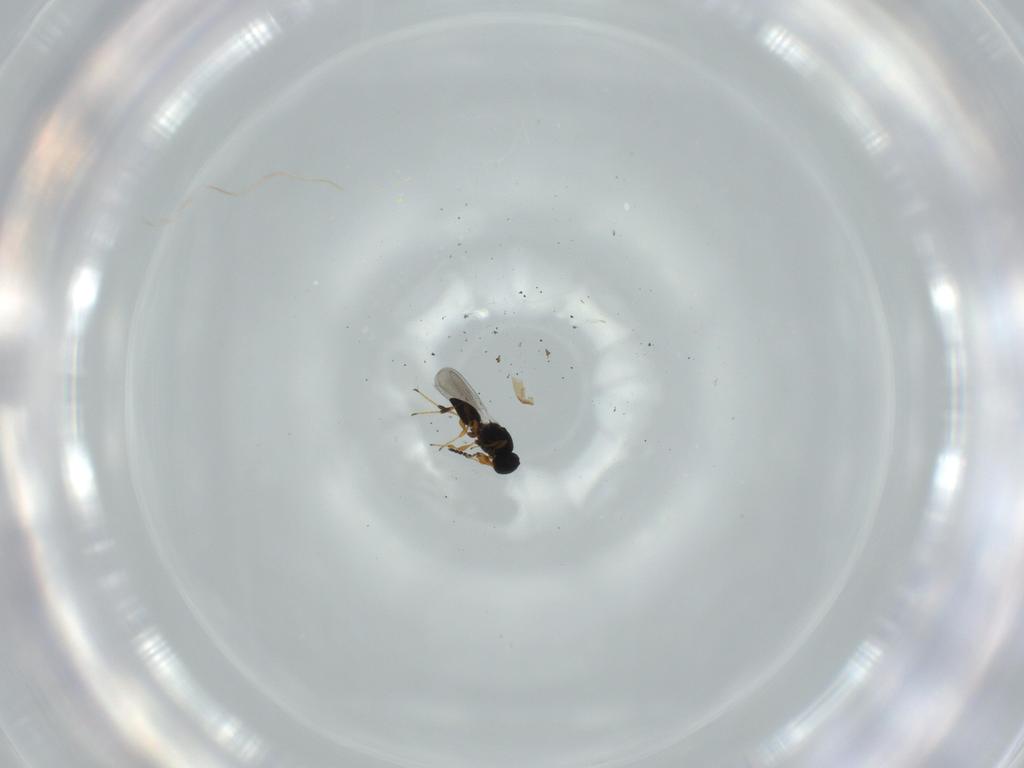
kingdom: Animalia
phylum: Arthropoda
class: Insecta
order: Hymenoptera
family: Platygastridae
